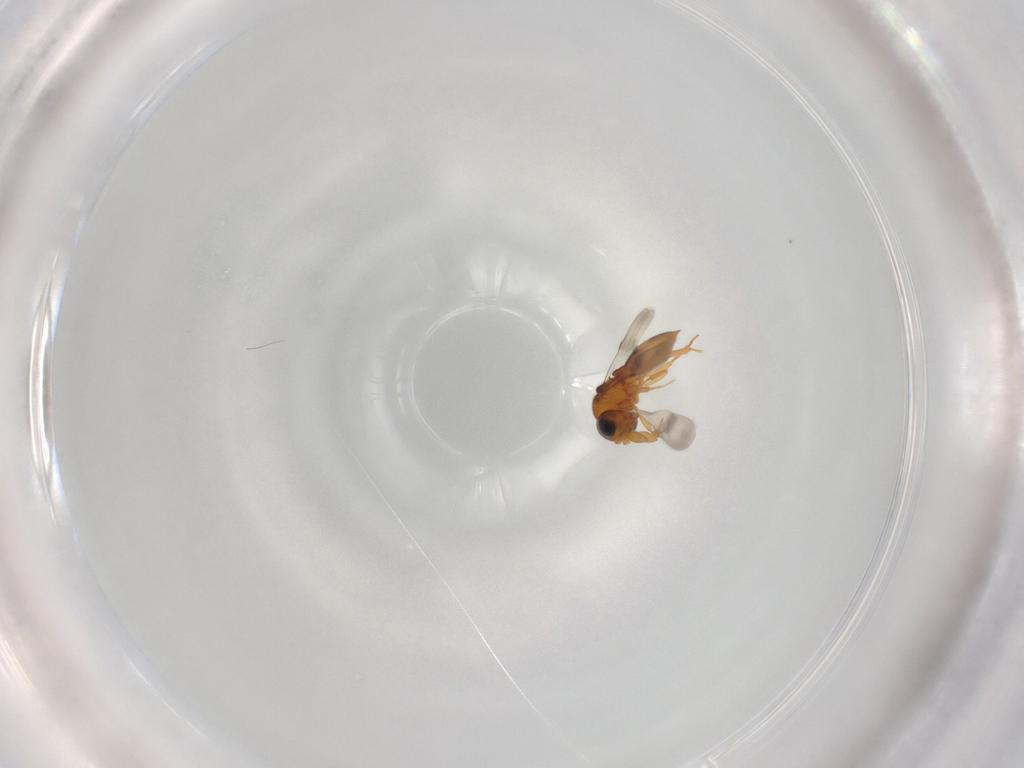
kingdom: Animalia
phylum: Arthropoda
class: Insecta
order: Hymenoptera
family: Scelionidae
